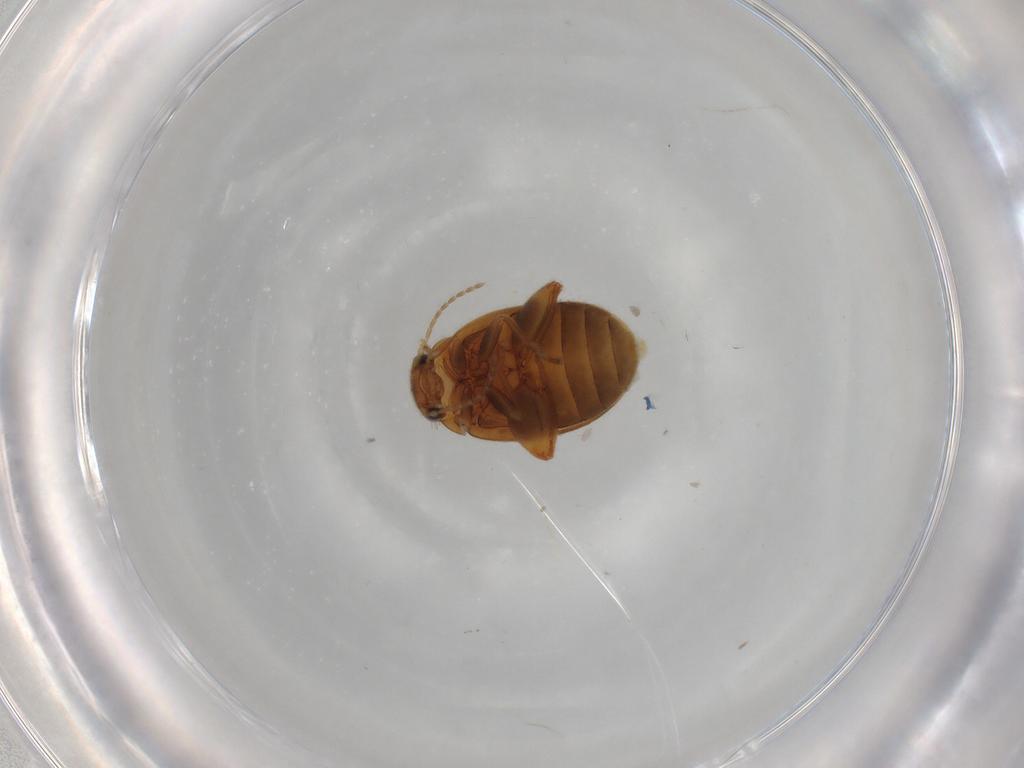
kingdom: Animalia
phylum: Arthropoda
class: Insecta
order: Coleoptera
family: Scirtidae
